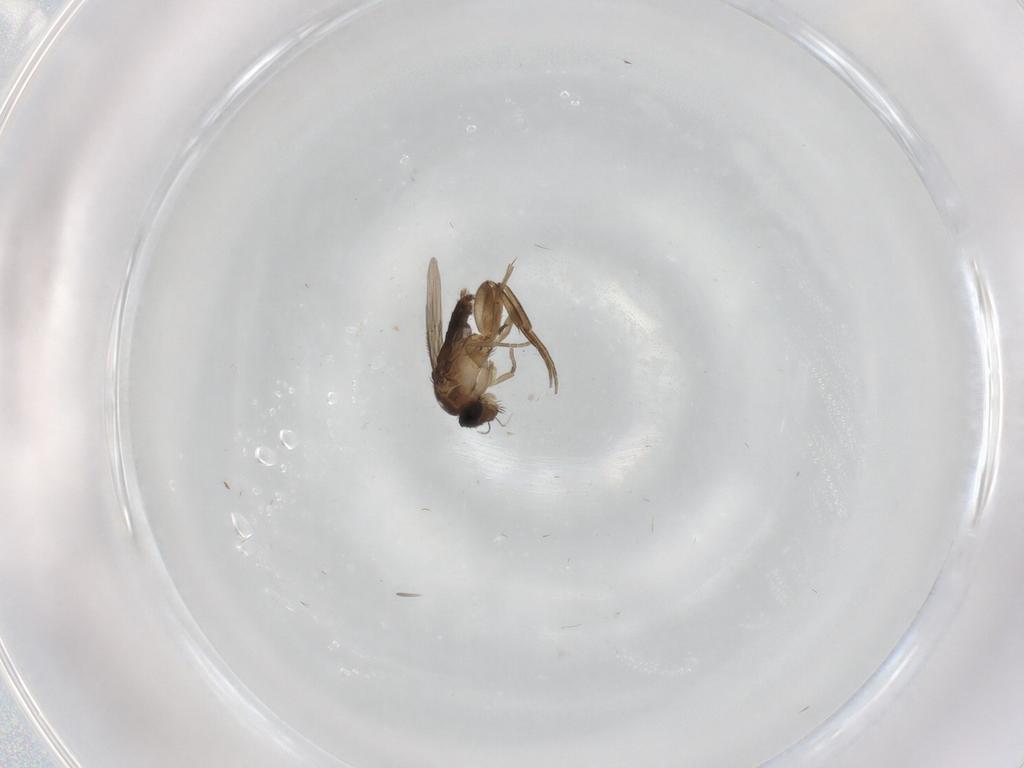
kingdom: Animalia
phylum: Arthropoda
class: Insecta
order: Diptera
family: Phoridae
